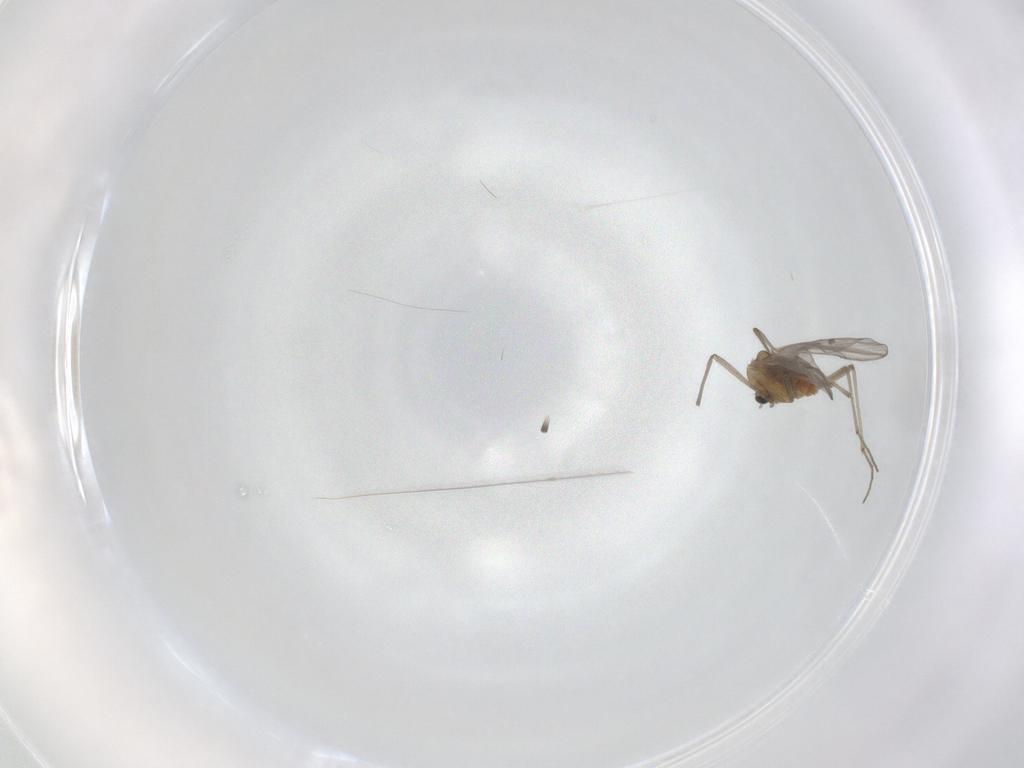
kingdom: Animalia
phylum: Arthropoda
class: Insecta
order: Diptera
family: Chironomidae
